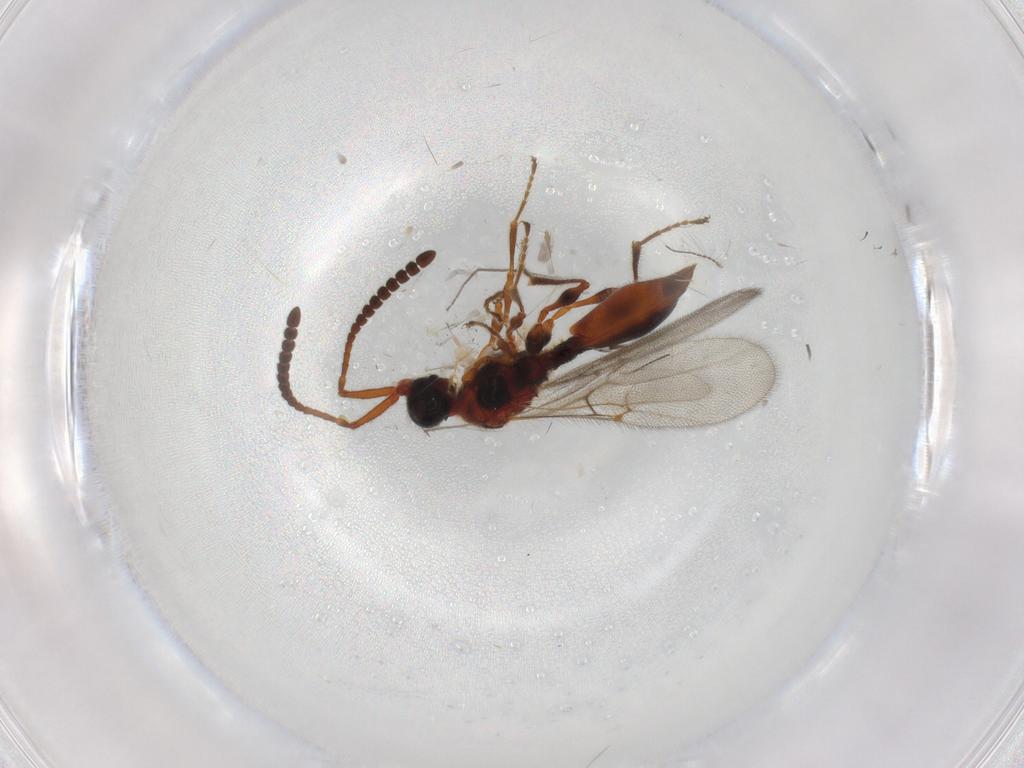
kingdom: Animalia
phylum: Arthropoda
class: Insecta
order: Hymenoptera
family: Diapriidae
